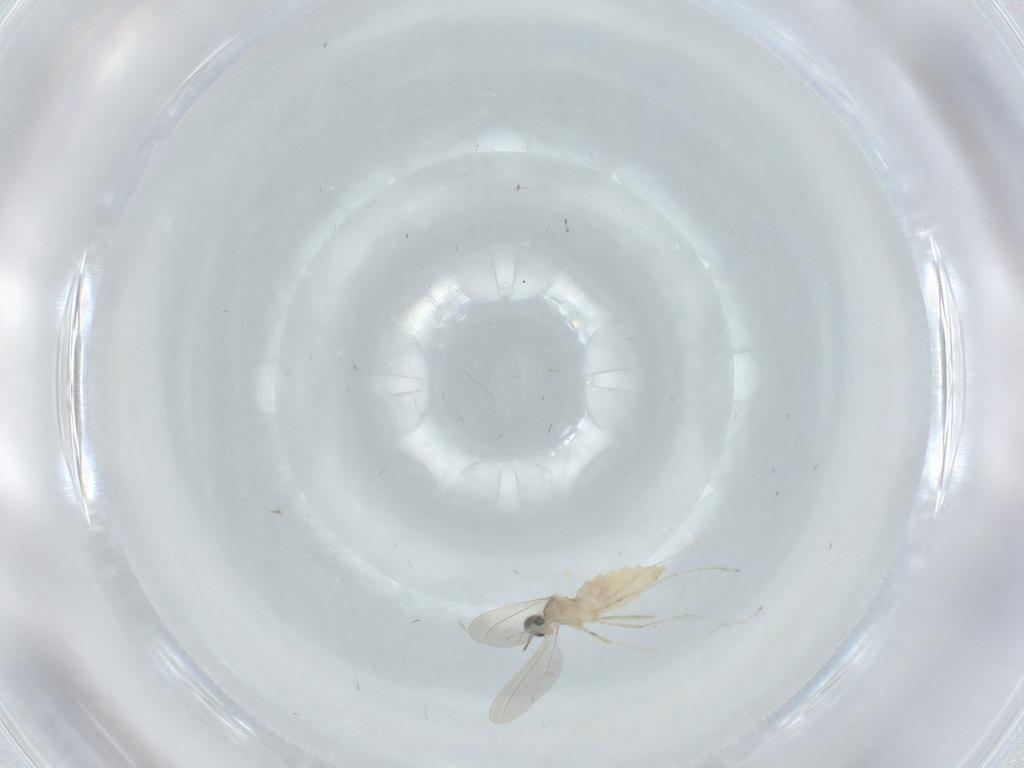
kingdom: Animalia
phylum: Arthropoda
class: Insecta
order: Diptera
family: Cecidomyiidae
